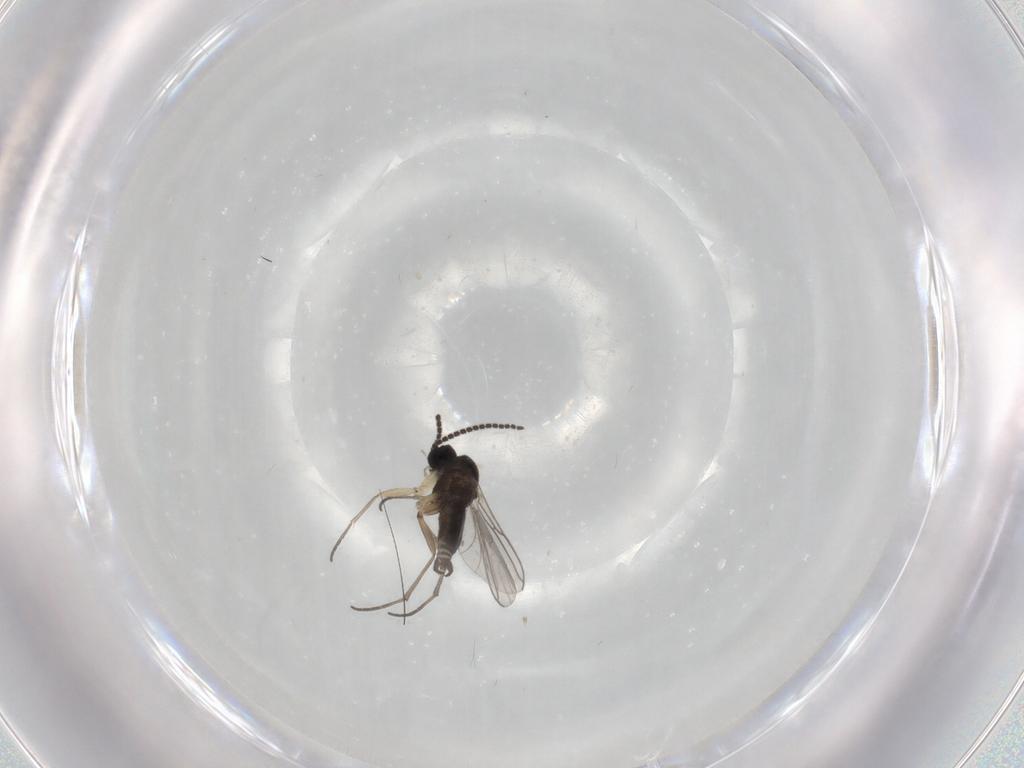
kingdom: Animalia
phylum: Arthropoda
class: Insecta
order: Diptera
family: Sciaridae
